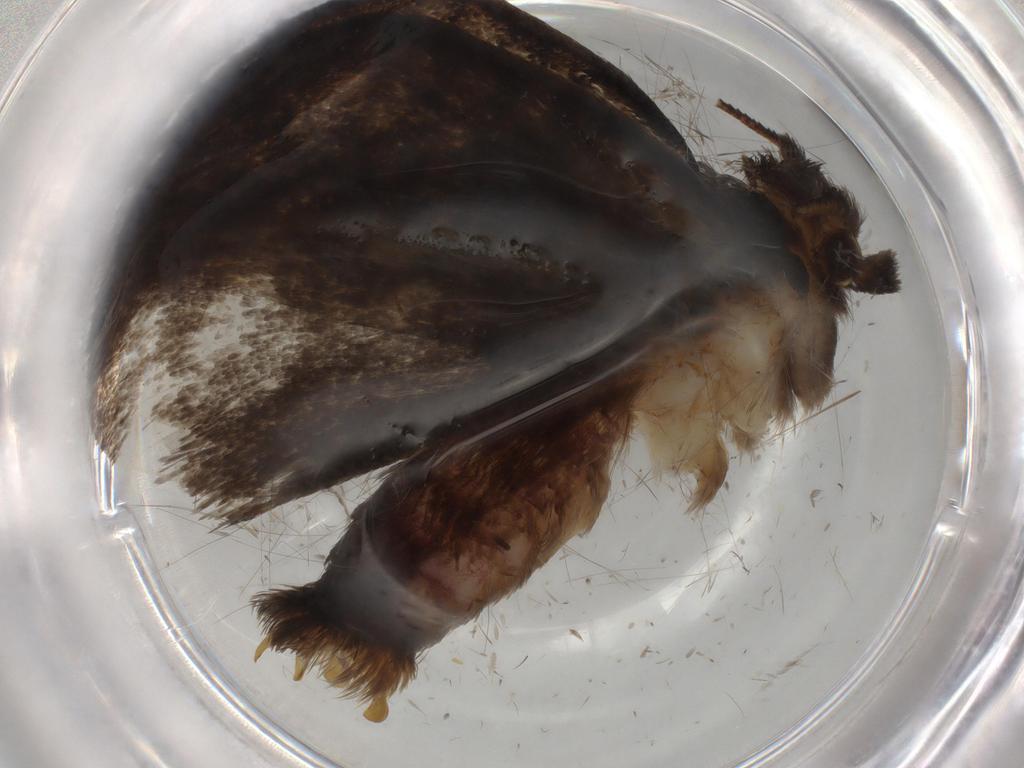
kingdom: Animalia
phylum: Arthropoda
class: Insecta
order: Lepidoptera
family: Tineidae
